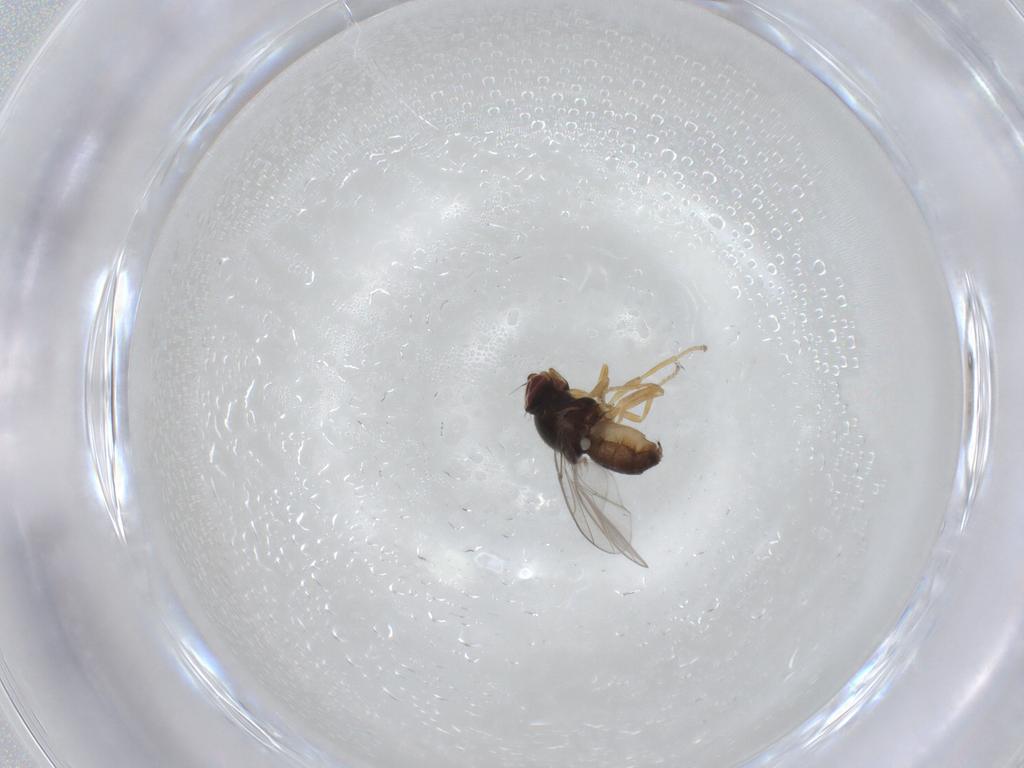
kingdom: Animalia
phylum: Arthropoda
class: Insecta
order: Diptera
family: Chloropidae
